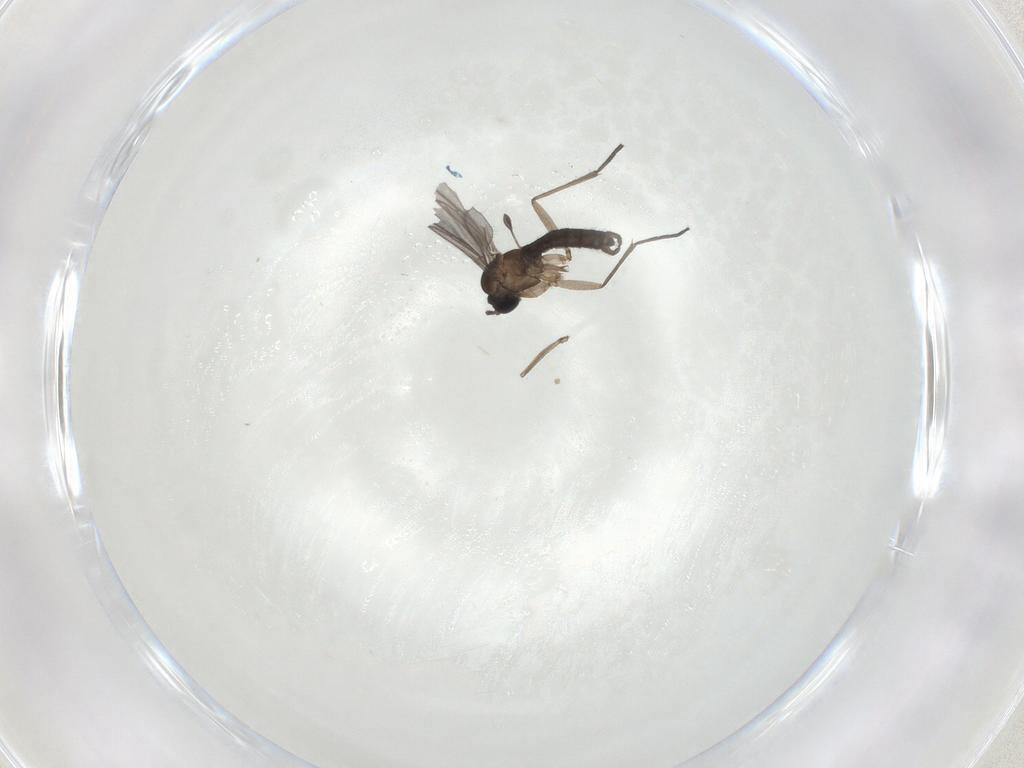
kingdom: Animalia
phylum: Arthropoda
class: Insecta
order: Diptera
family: Sciaridae
